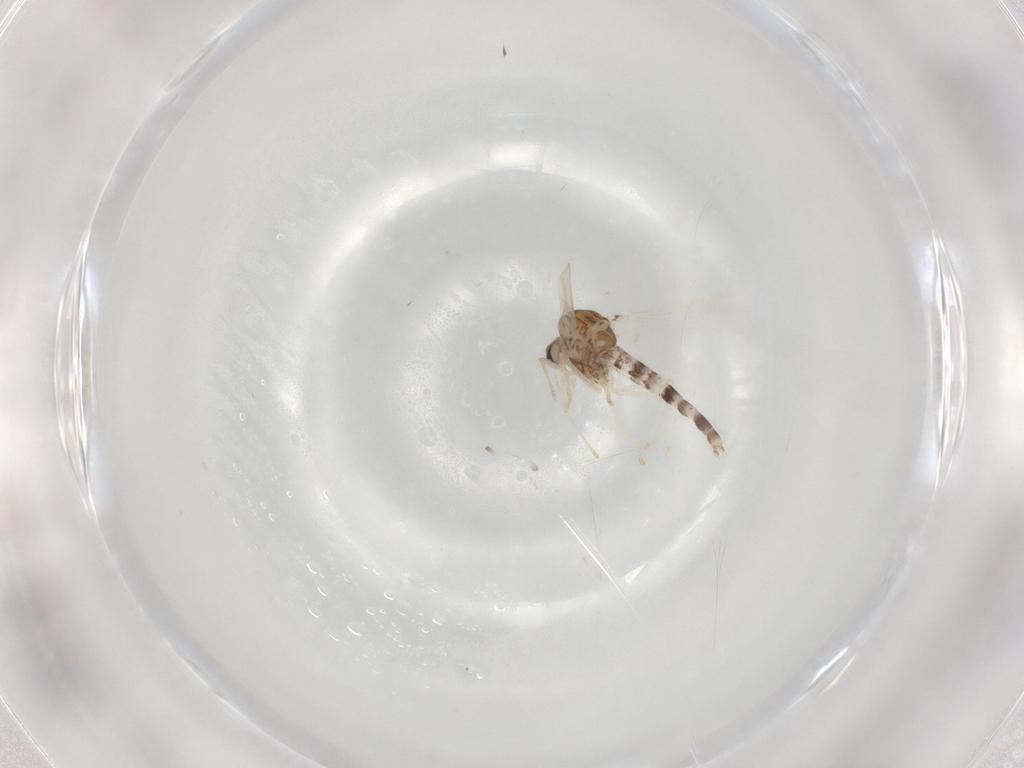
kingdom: Animalia
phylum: Arthropoda
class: Insecta
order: Diptera
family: Chironomidae
